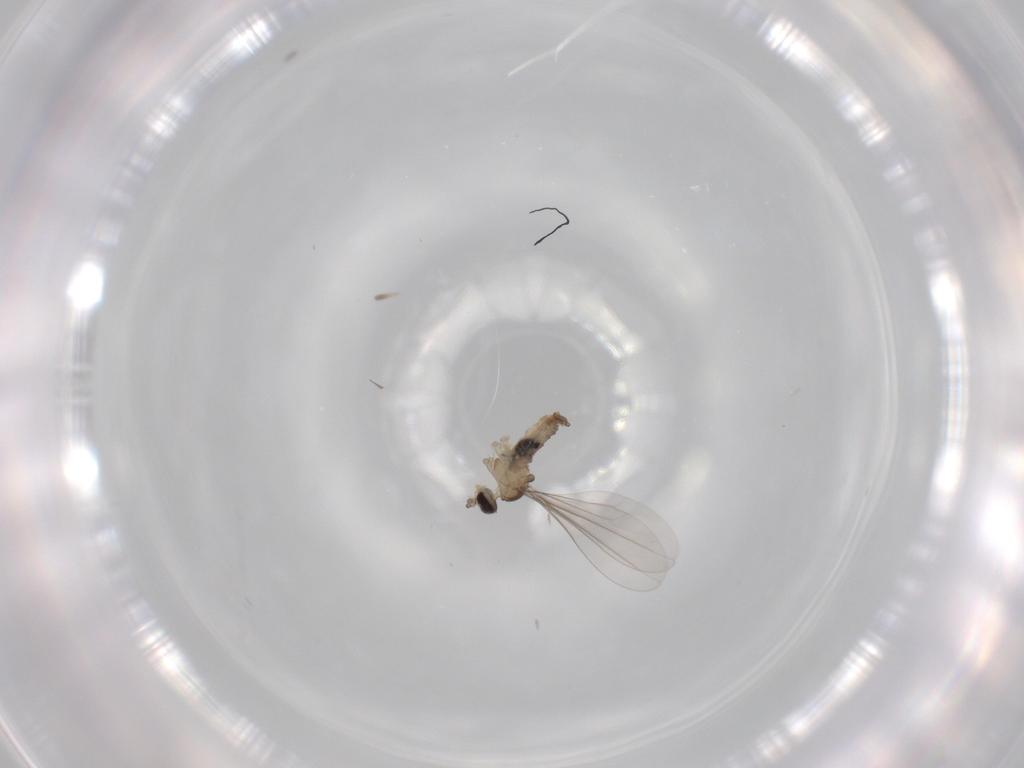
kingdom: Animalia
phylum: Arthropoda
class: Insecta
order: Diptera
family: Cecidomyiidae
